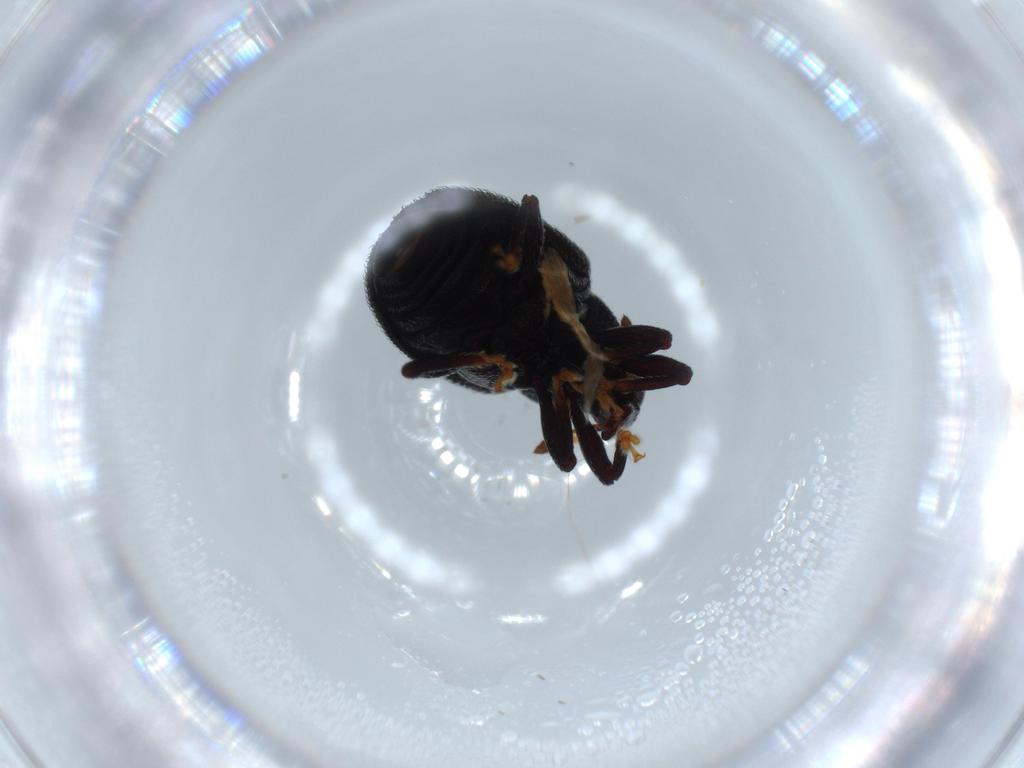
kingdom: Animalia
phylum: Arthropoda
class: Insecta
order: Coleoptera
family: Curculionidae
